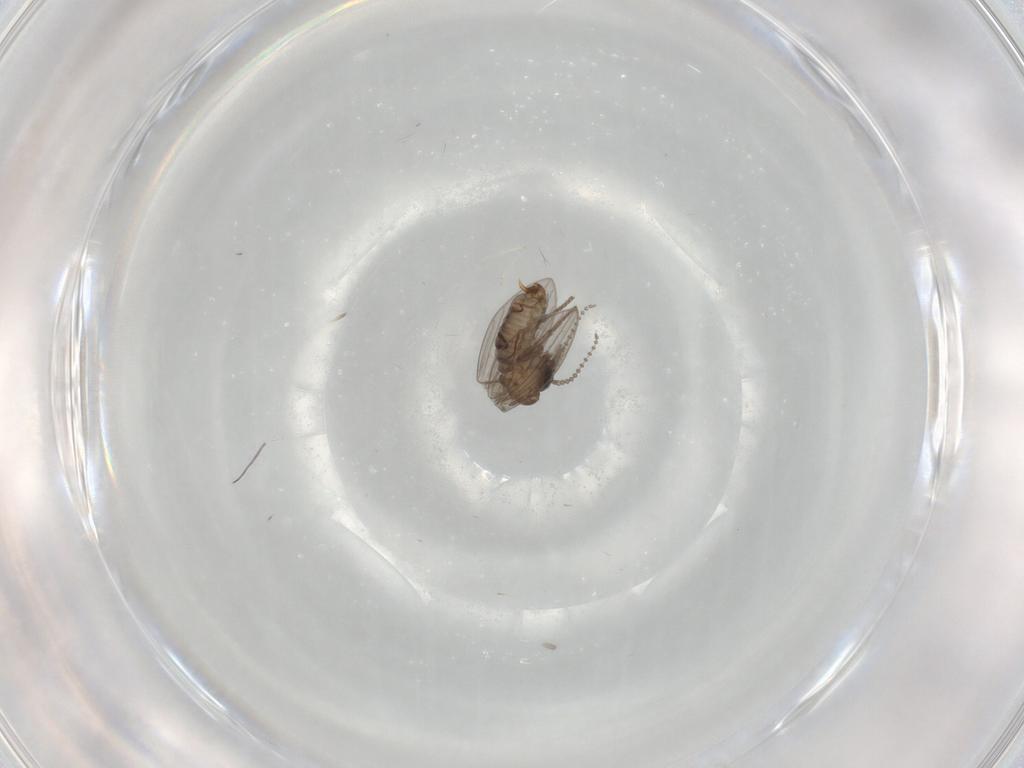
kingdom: Animalia
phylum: Arthropoda
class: Insecta
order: Diptera
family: Psychodidae
